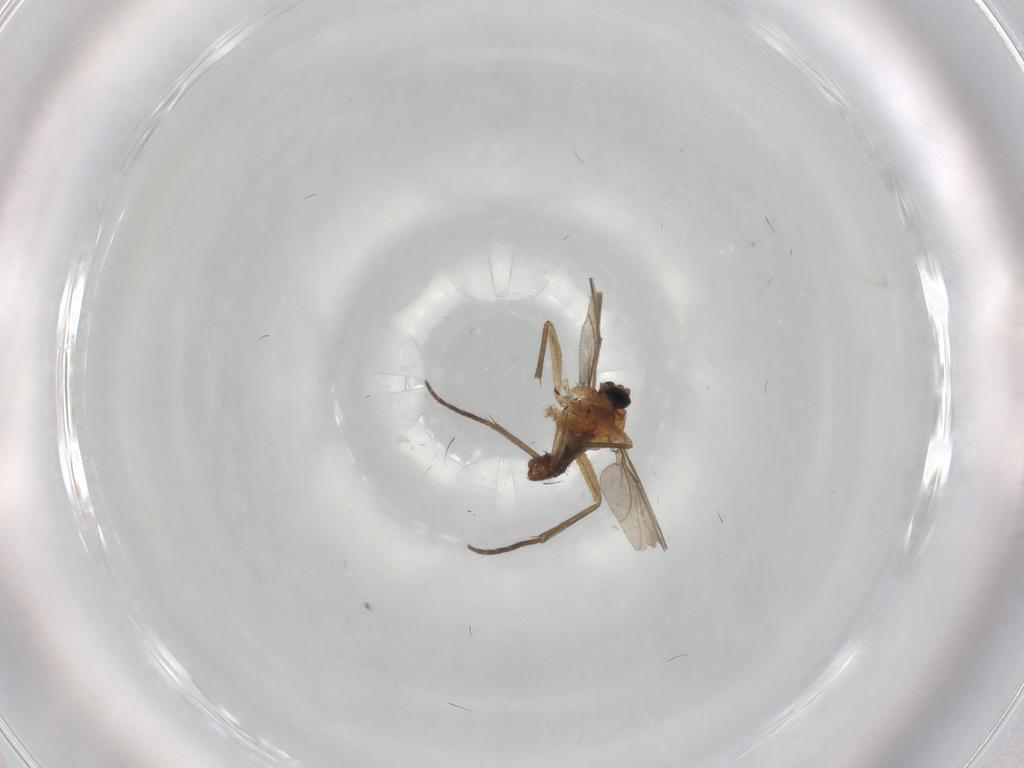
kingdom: Animalia
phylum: Arthropoda
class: Insecta
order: Diptera
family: Sciaridae
